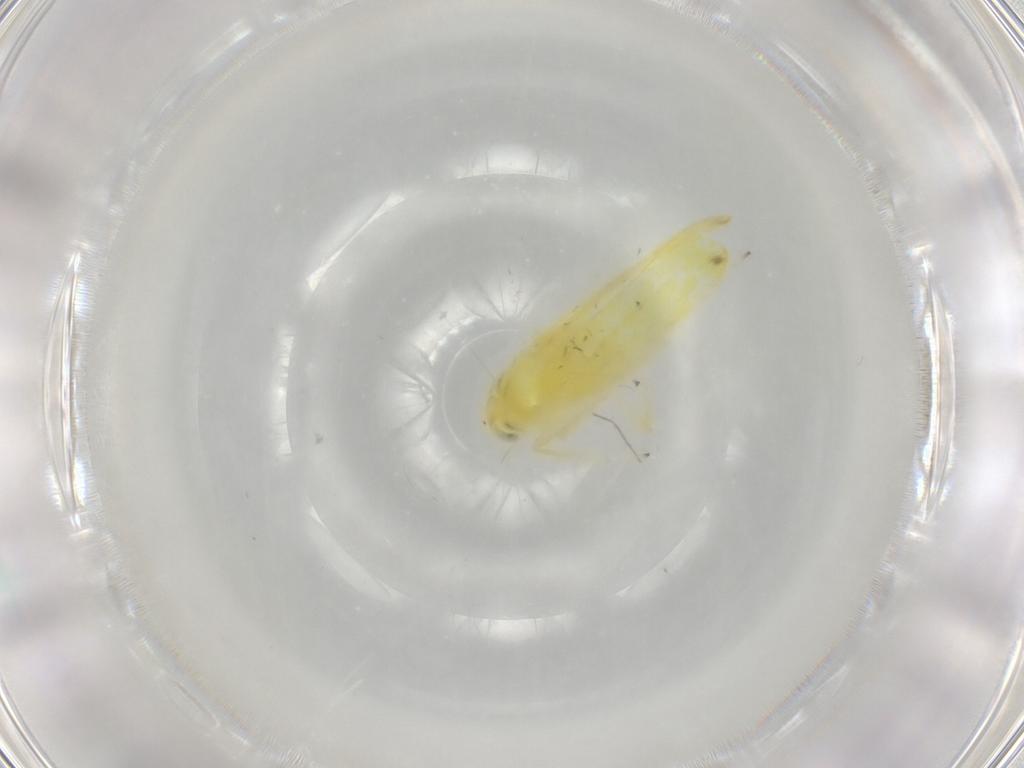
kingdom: Animalia
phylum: Arthropoda
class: Insecta
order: Hemiptera
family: Cicadellidae
